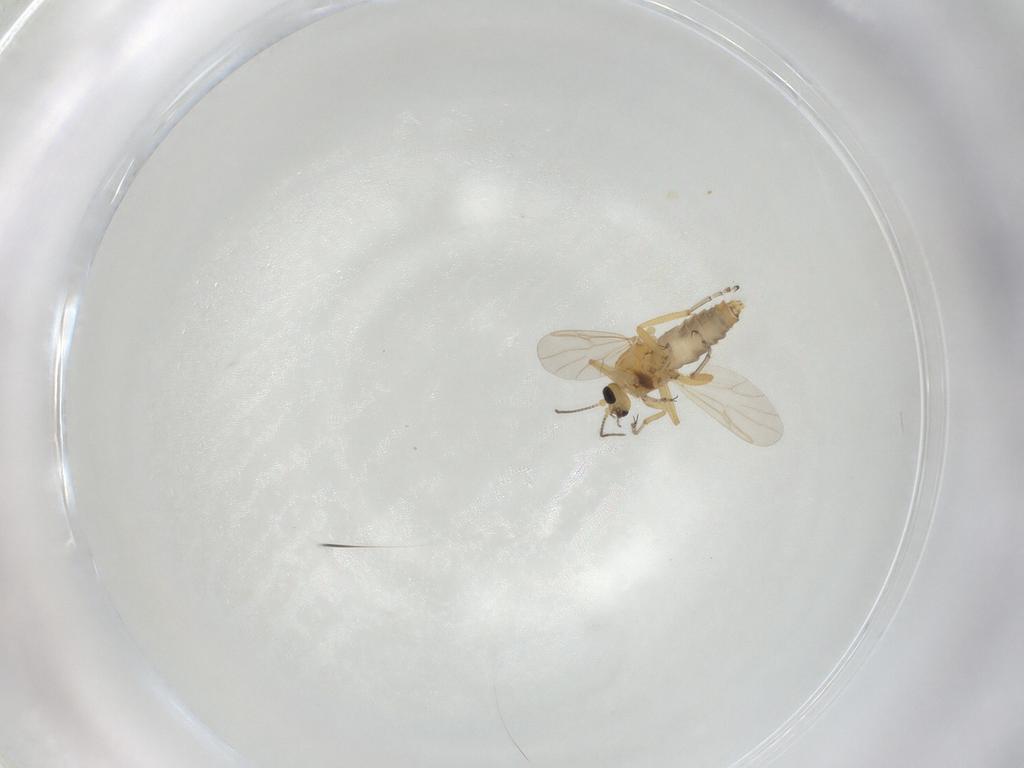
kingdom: Animalia
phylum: Arthropoda
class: Insecta
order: Diptera
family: Ceratopogonidae
